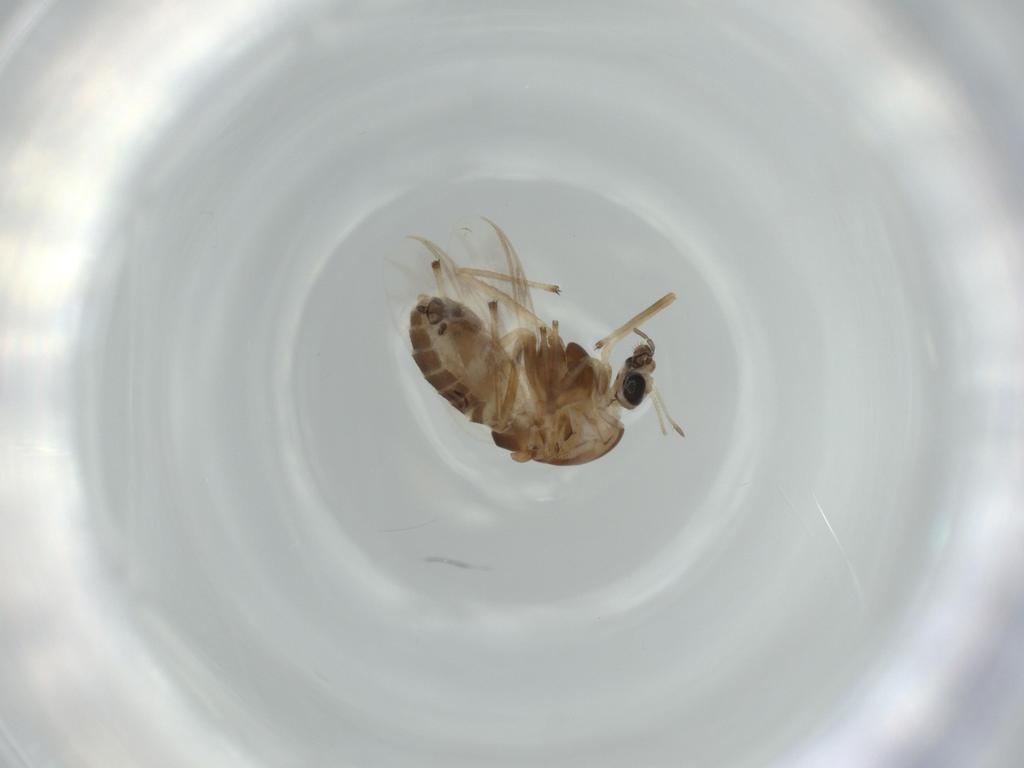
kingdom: Animalia
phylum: Arthropoda
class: Insecta
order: Diptera
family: Chironomidae
